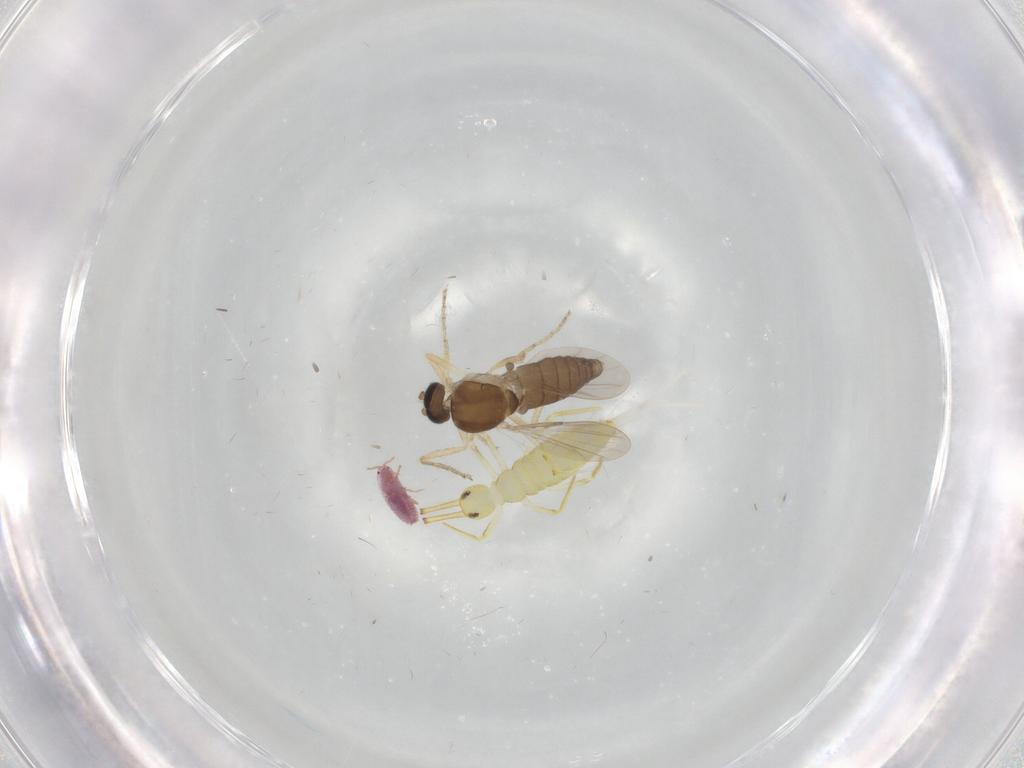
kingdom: Animalia
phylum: Arthropoda
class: Insecta
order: Diptera
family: Ceratopogonidae
